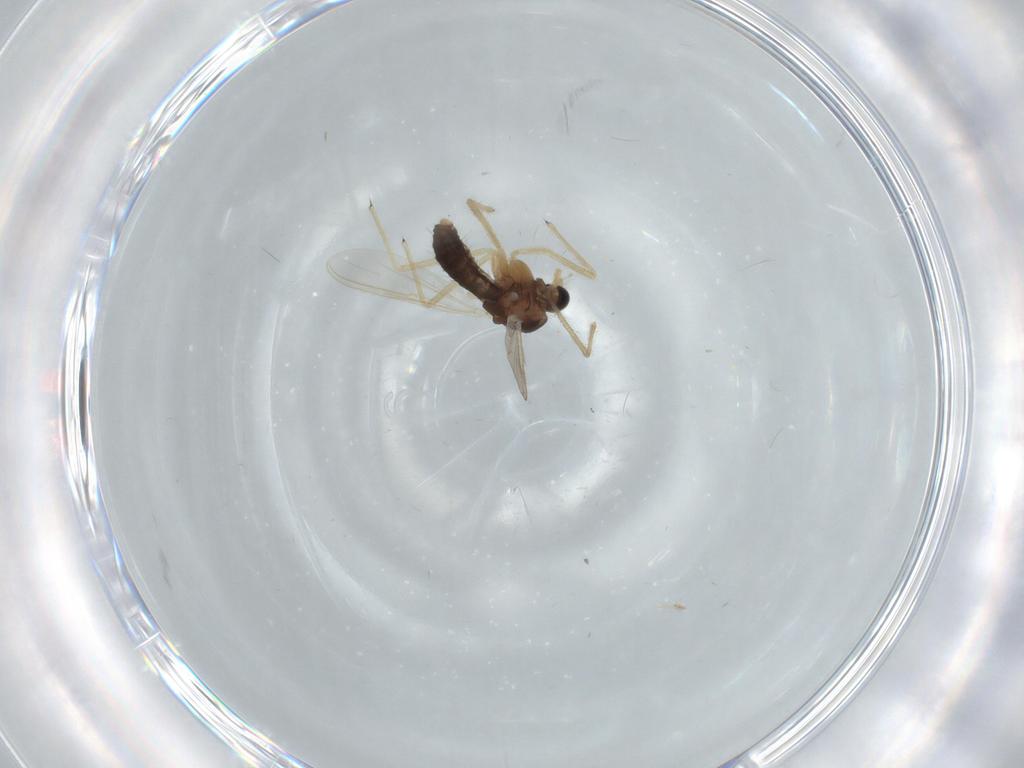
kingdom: Animalia
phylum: Arthropoda
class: Insecta
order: Diptera
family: Chironomidae
